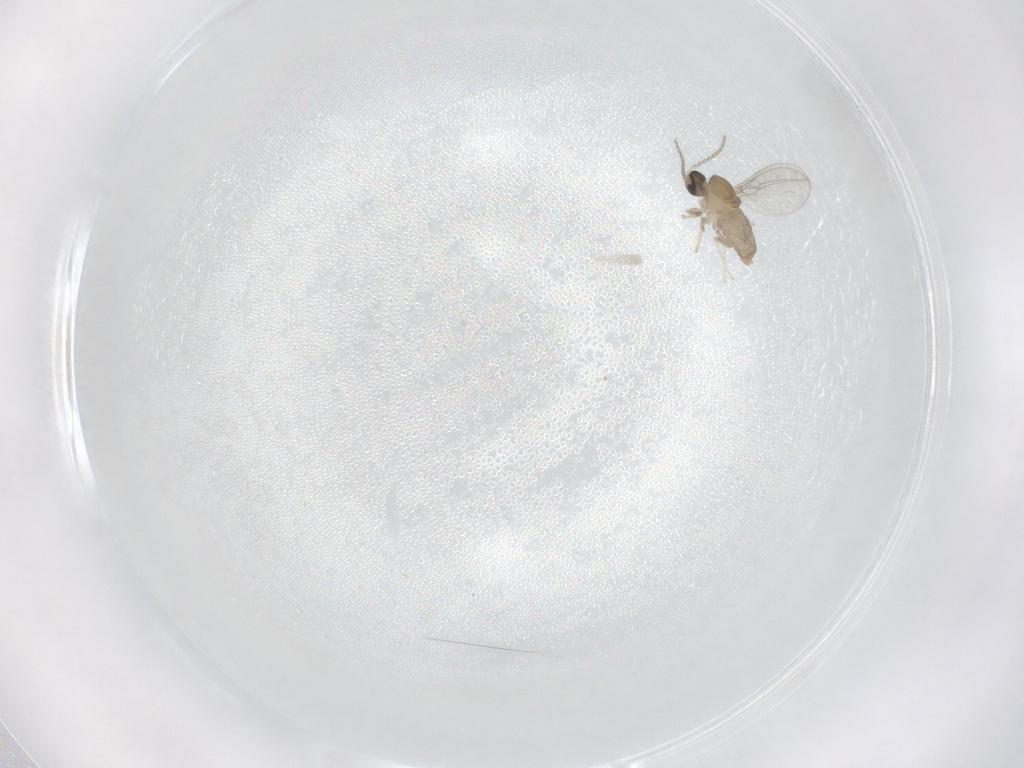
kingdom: Animalia
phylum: Arthropoda
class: Insecta
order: Diptera
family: Cecidomyiidae
